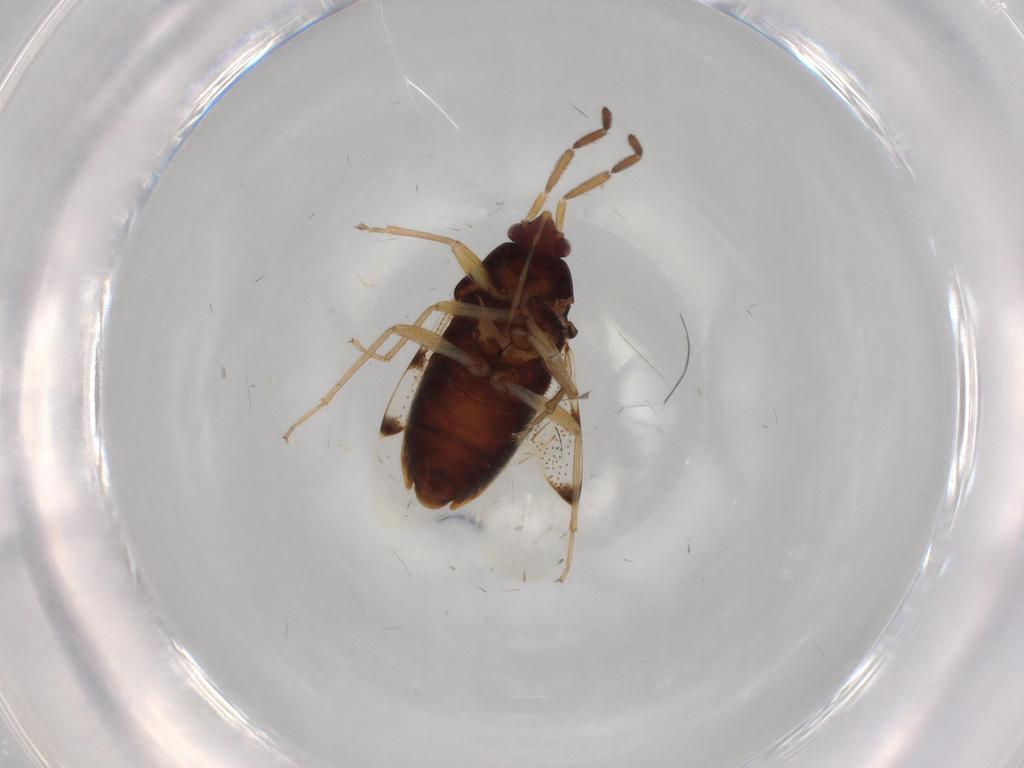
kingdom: Animalia
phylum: Arthropoda
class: Insecta
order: Hemiptera
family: Rhyparochromidae
